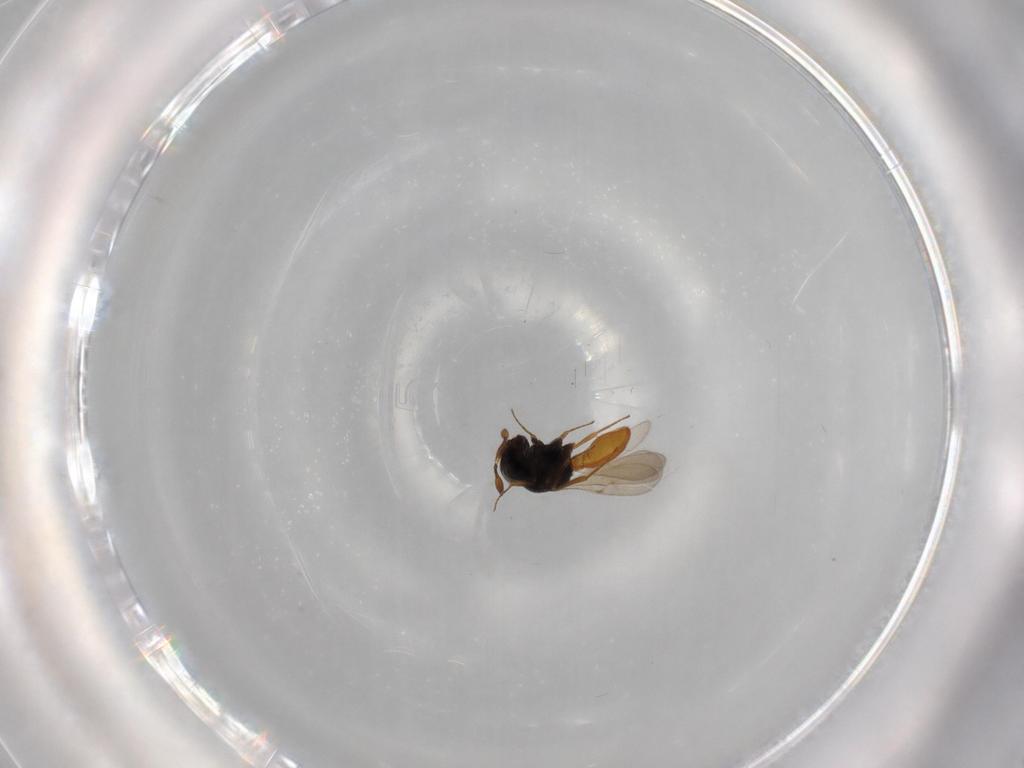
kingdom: Animalia
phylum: Arthropoda
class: Insecta
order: Hymenoptera
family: Scelionidae
